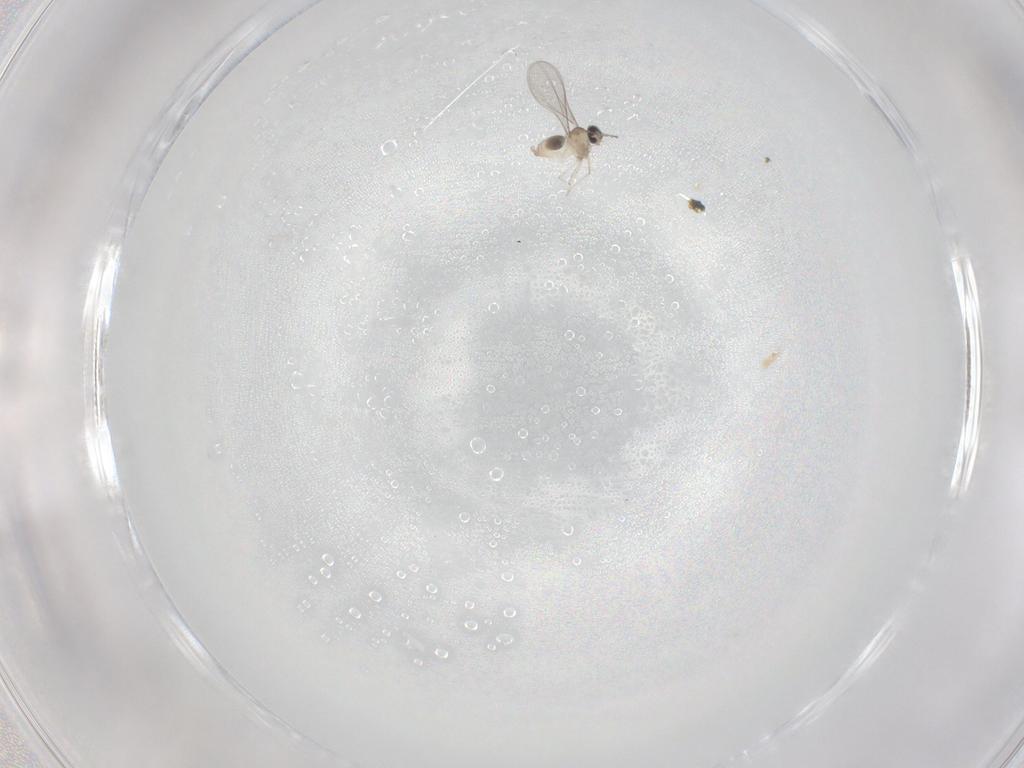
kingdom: Animalia
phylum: Arthropoda
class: Insecta
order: Diptera
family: Cecidomyiidae
